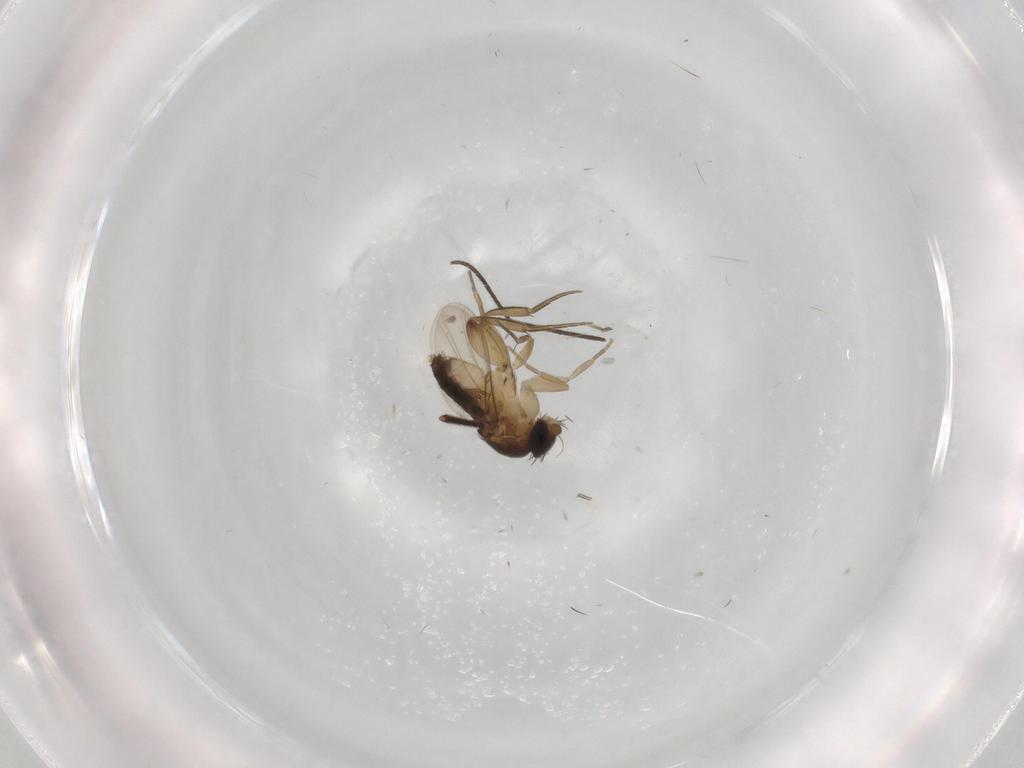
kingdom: Animalia
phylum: Arthropoda
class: Insecta
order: Diptera
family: Phoridae
